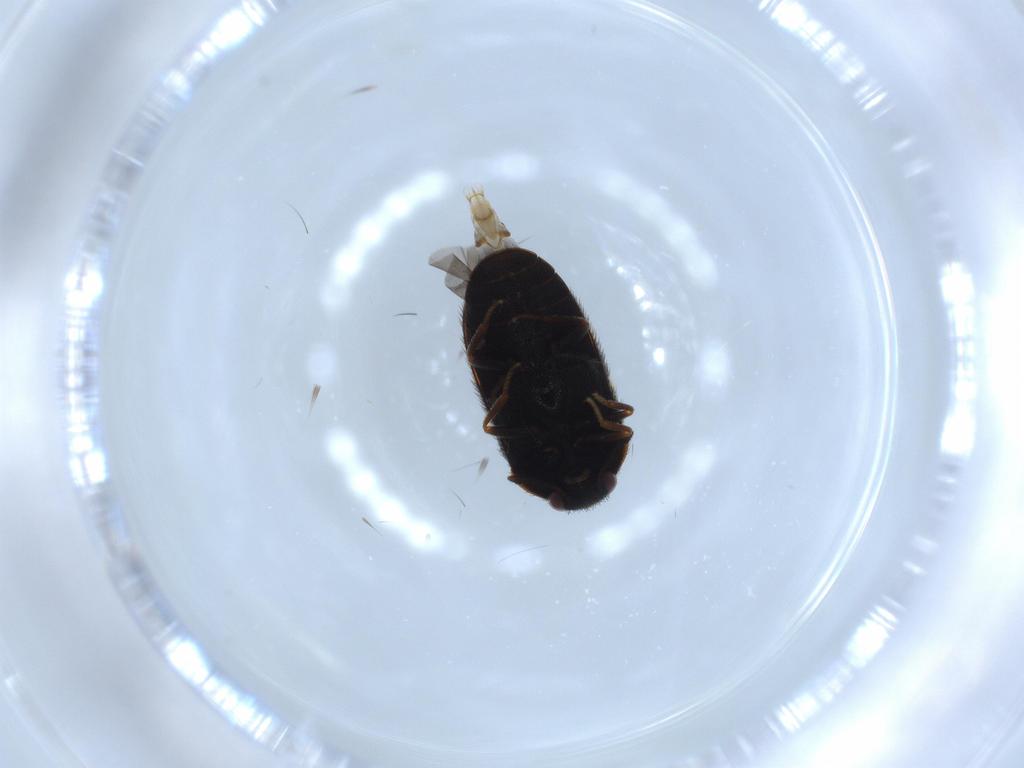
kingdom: Animalia
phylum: Arthropoda
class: Insecta
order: Coleoptera
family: Dermestidae
